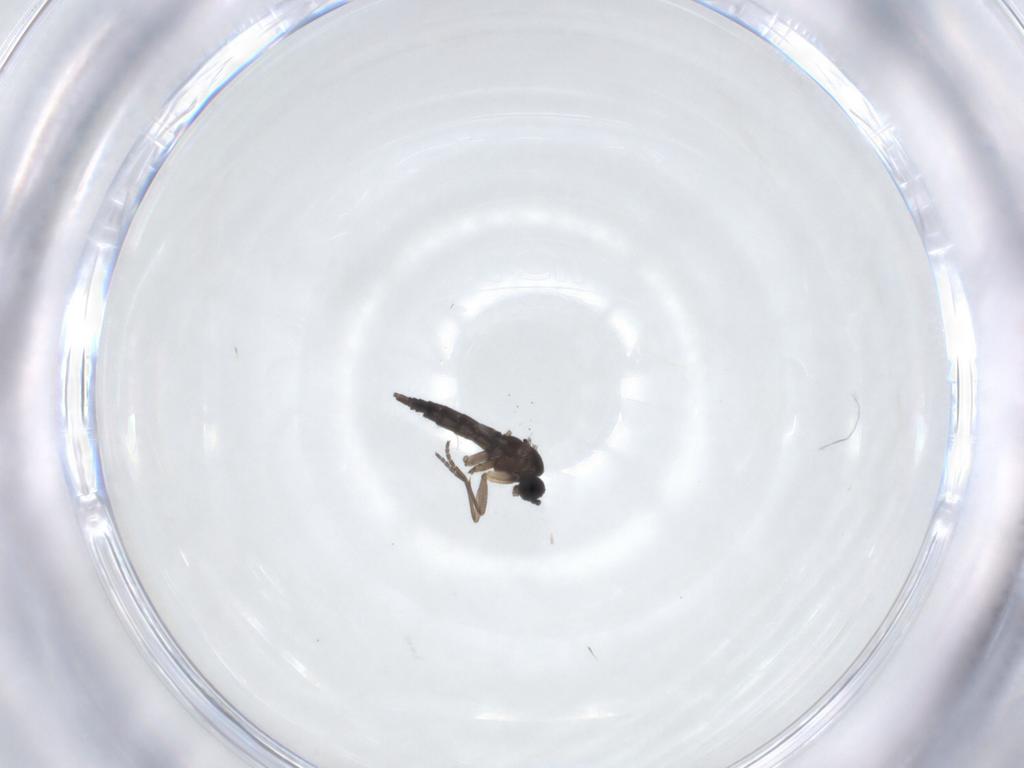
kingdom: Animalia
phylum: Arthropoda
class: Insecta
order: Diptera
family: Sciaridae
